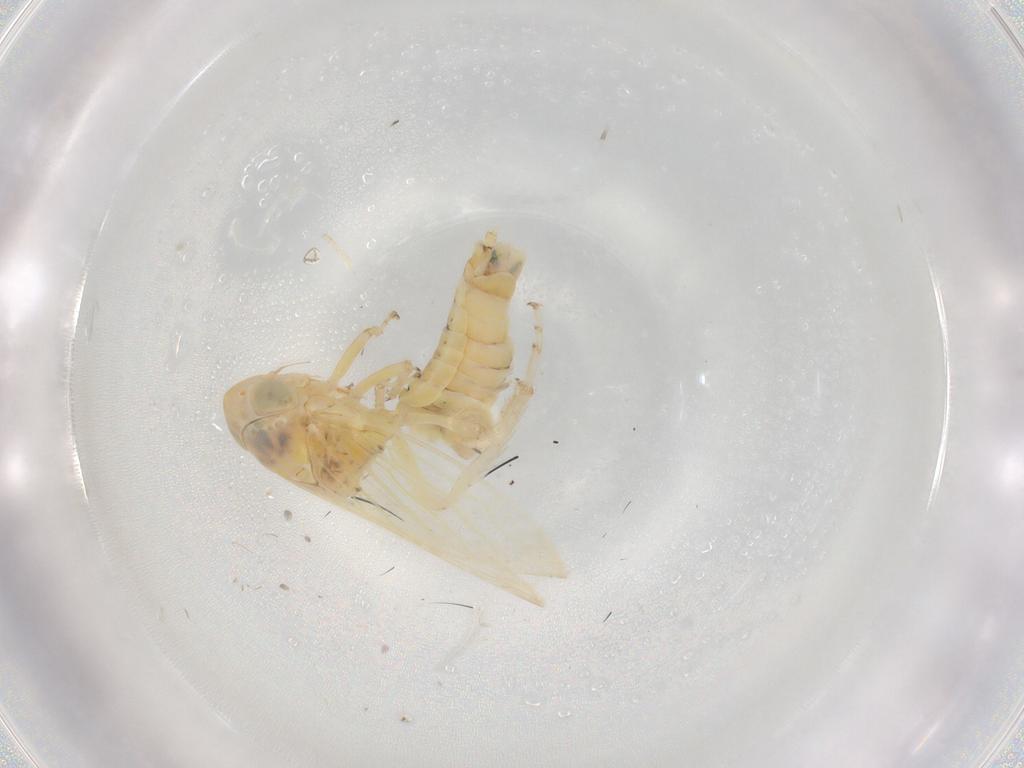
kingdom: Animalia
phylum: Arthropoda
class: Insecta
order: Hemiptera
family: Cicadellidae
